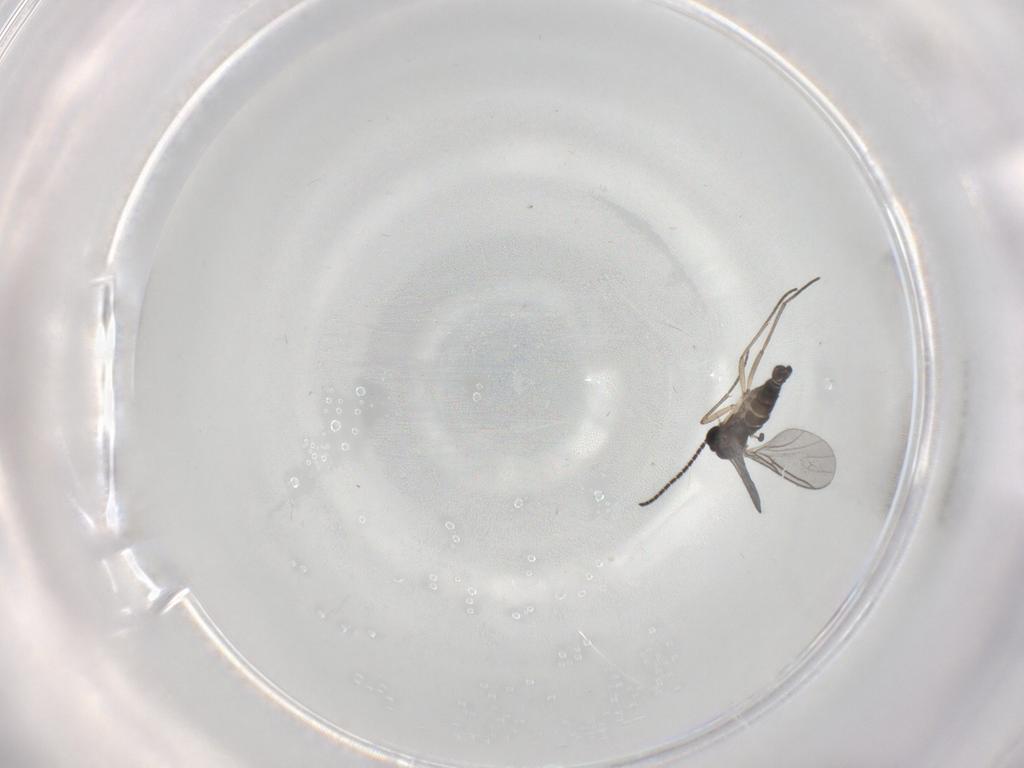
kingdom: Animalia
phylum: Arthropoda
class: Insecta
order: Diptera
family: Sciaridae
